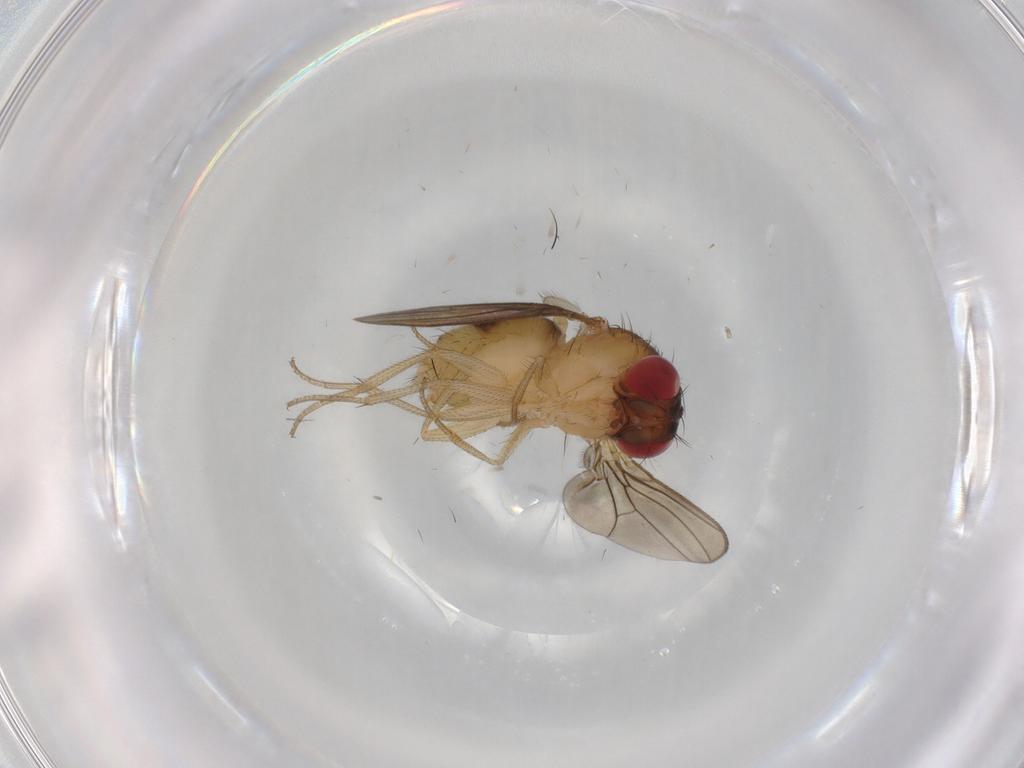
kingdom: Animalia
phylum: Arthropoda
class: Insecta
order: Diptera
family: Drosophilidae
